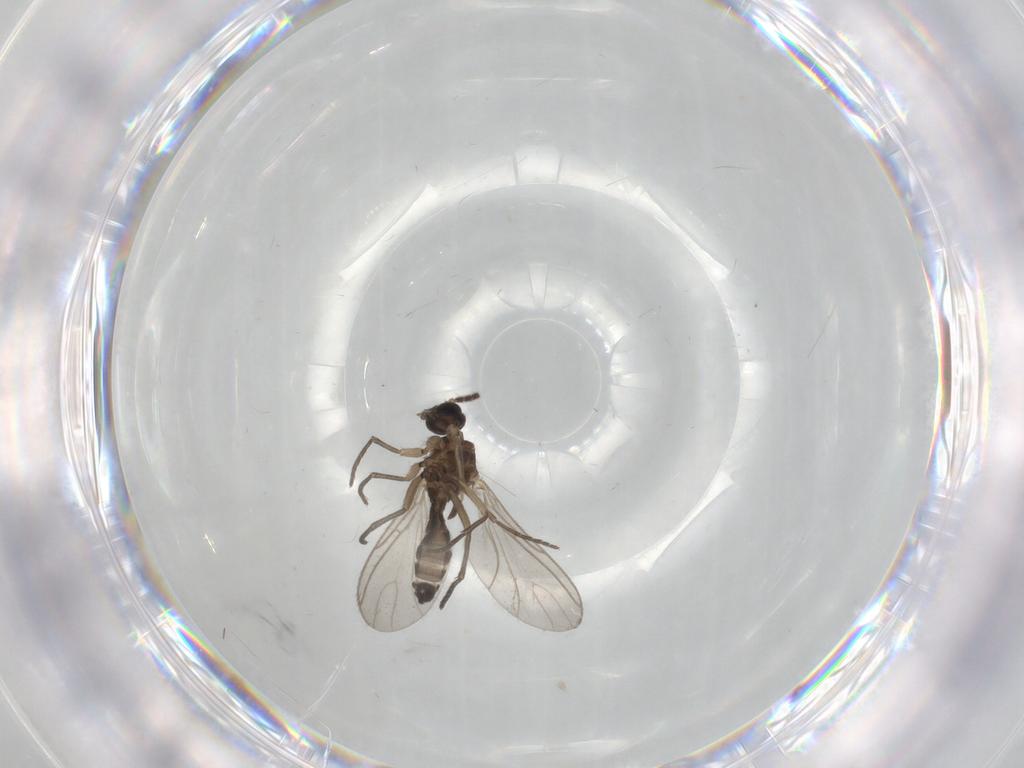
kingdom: Animalia
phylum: Arthropoda
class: Insecta
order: Diptera
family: Sciaridae
